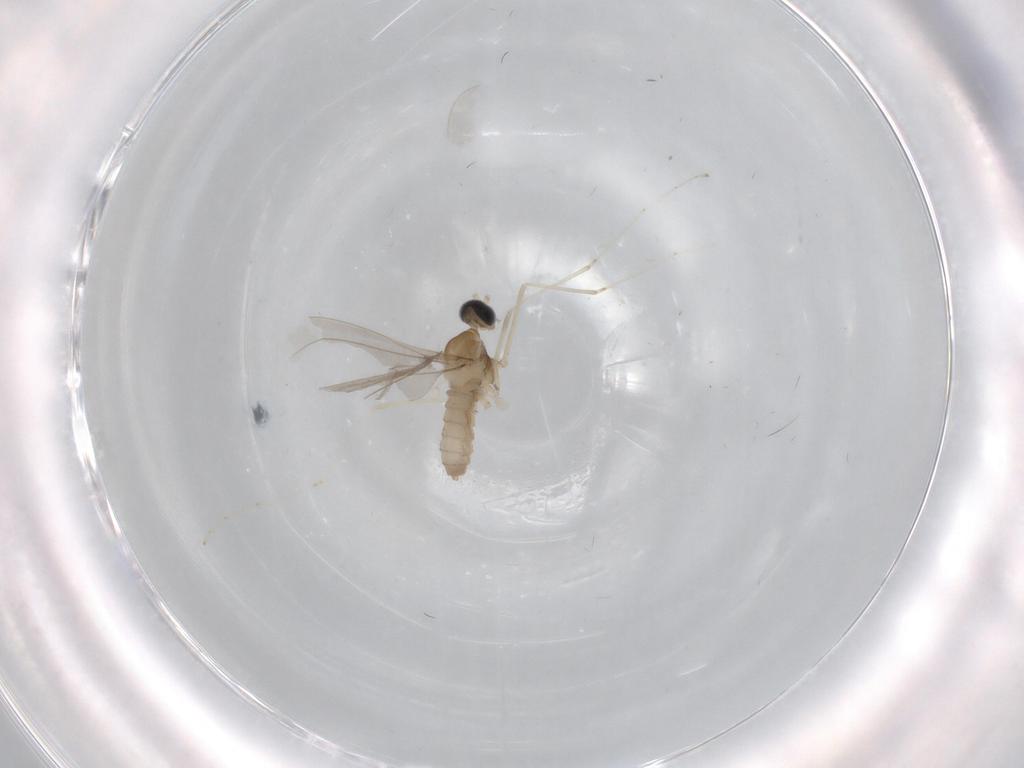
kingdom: Animalia
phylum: Arthropoda
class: Insecta
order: Diptera
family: Cecidomyiidae
